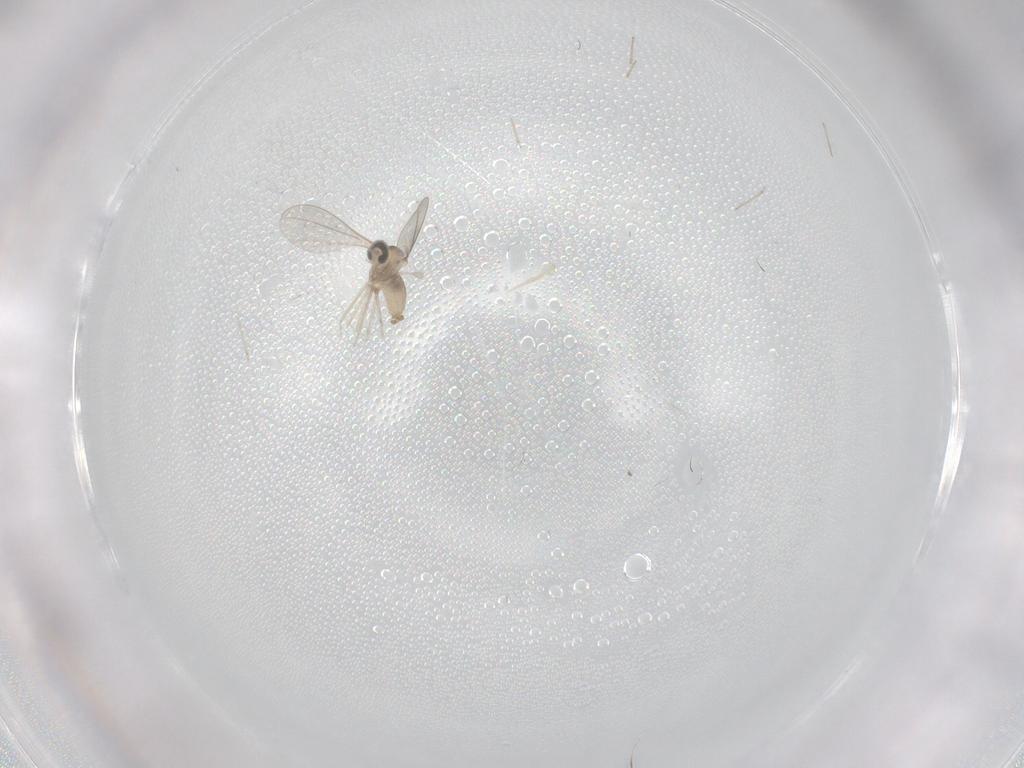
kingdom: Animalia
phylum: Arthropoda
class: Insecta
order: Diptera
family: Cecidomyiidae
